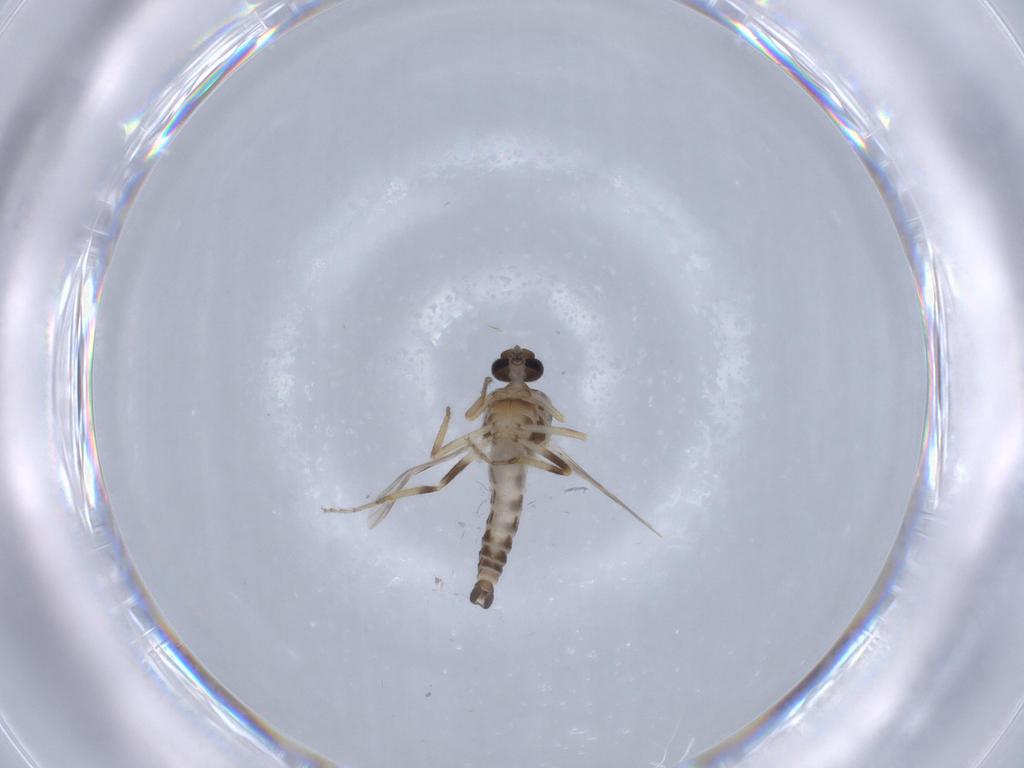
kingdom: Animalia
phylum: Arthropoda
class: Insecta
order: Diptera
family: Ceratopogonidae
